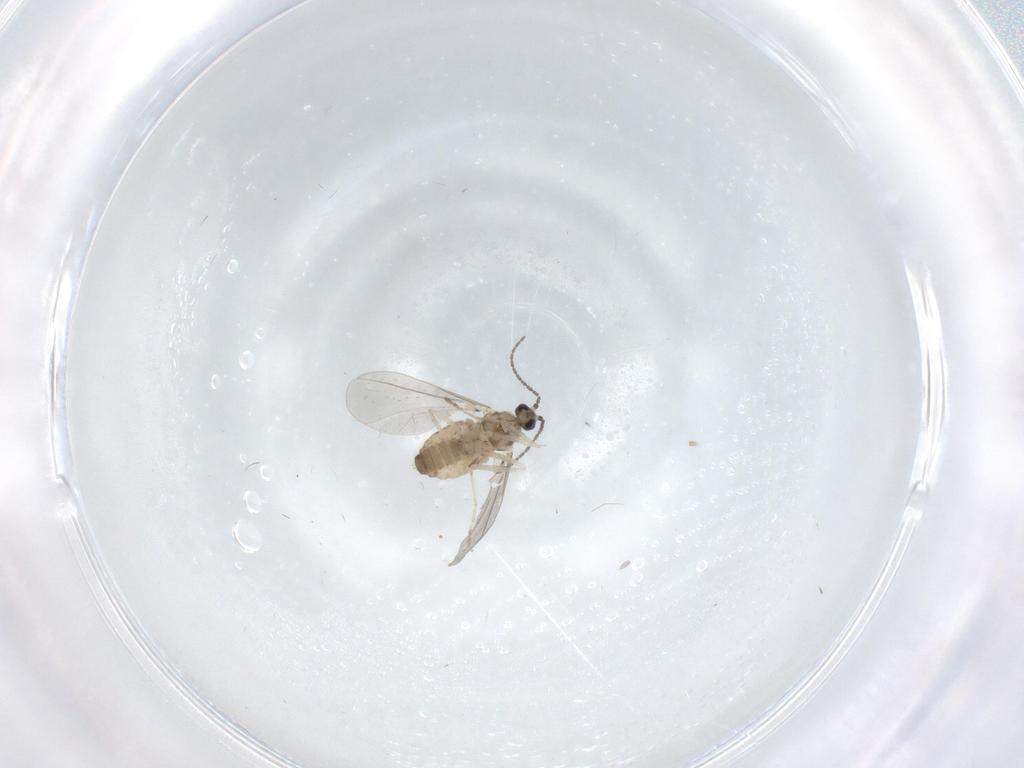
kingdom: Animalia
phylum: Arthropoda
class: Insecta
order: Diptera
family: Cecidomyiidae
